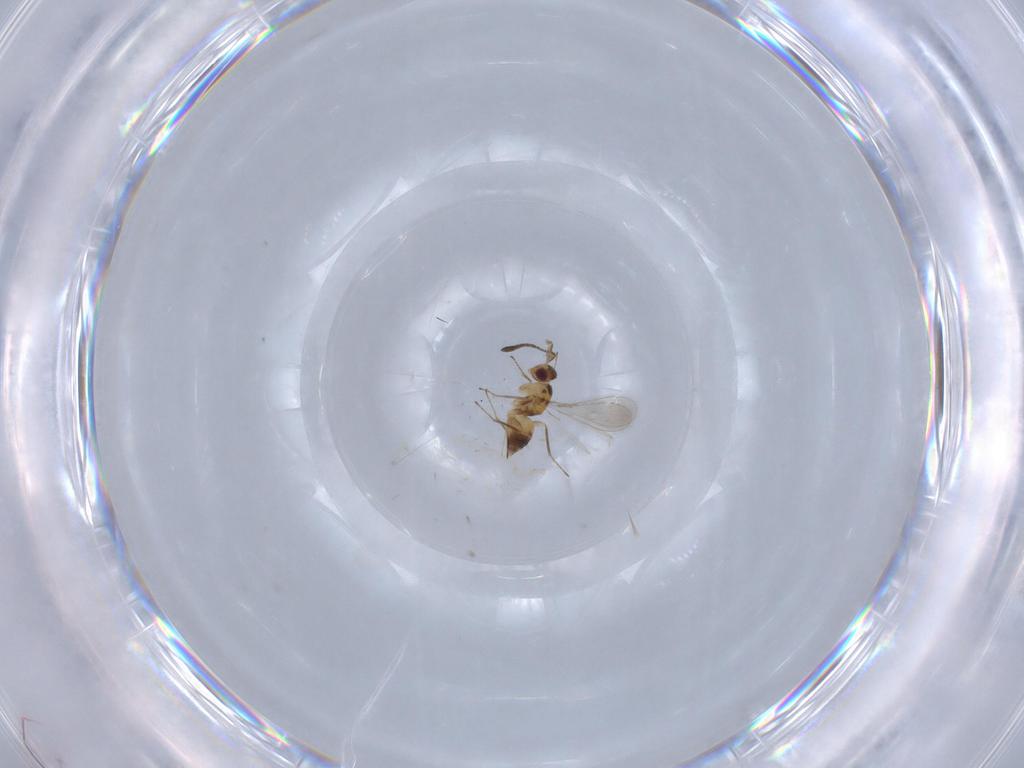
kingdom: Animalia
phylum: Arthropoda
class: Insecta
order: Hymenoptera
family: Mymaridae
